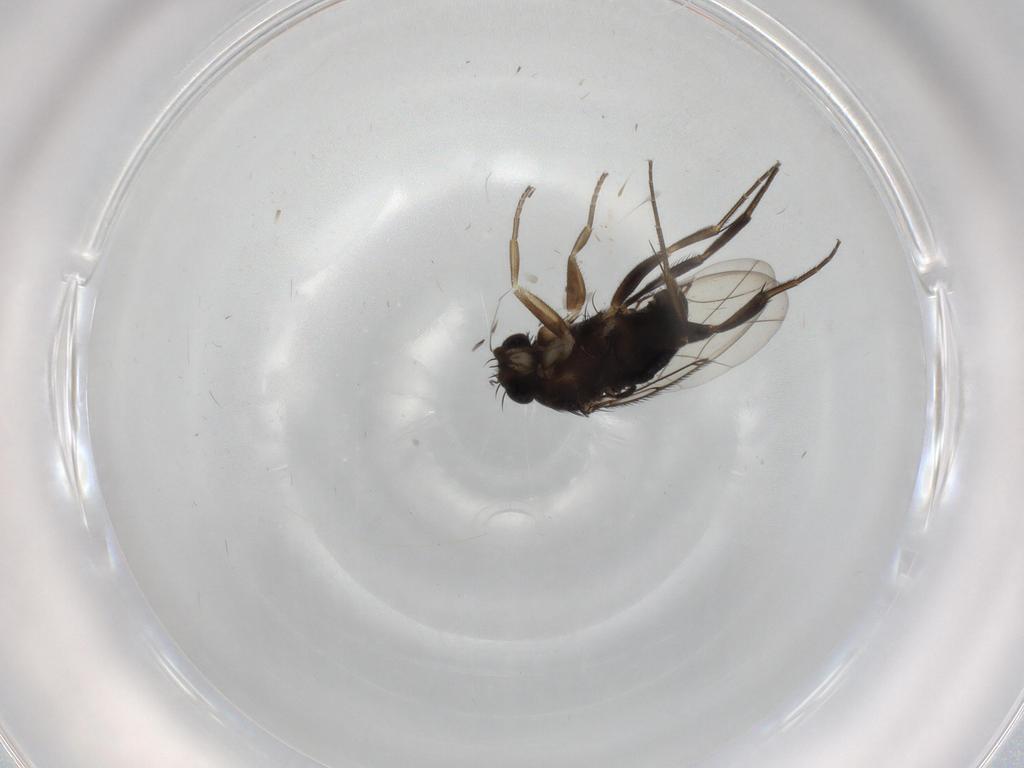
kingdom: Animalia
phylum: Arthropoda
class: Insecta
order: Diptera
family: Phoridae
